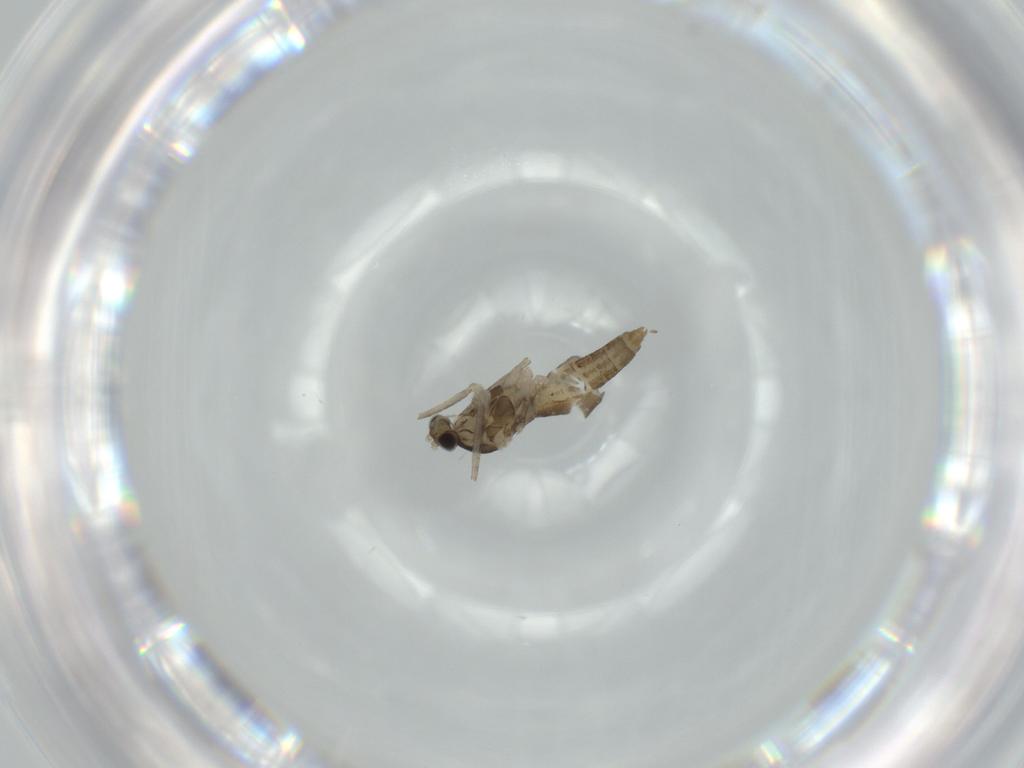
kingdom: Animalia
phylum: Arthropoda
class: Insecta
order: Diptera
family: Cecidomyiidae
